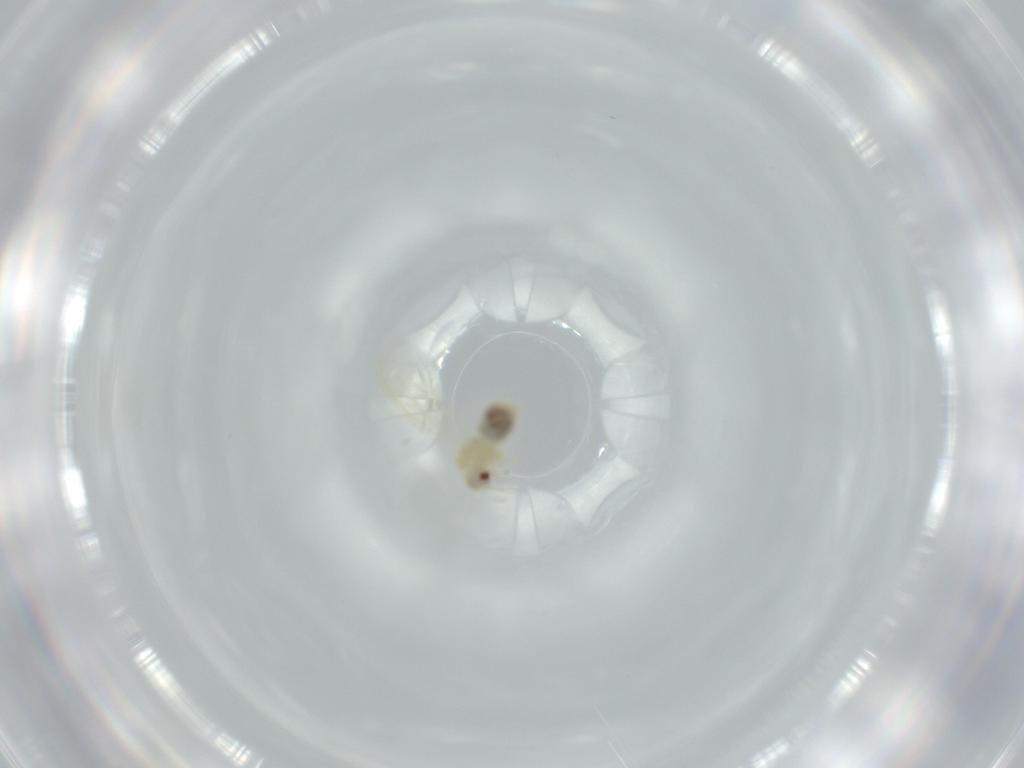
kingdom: Animalia
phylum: Arthropoda
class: Insecta
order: Hemiptera
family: Aleyrodidae
